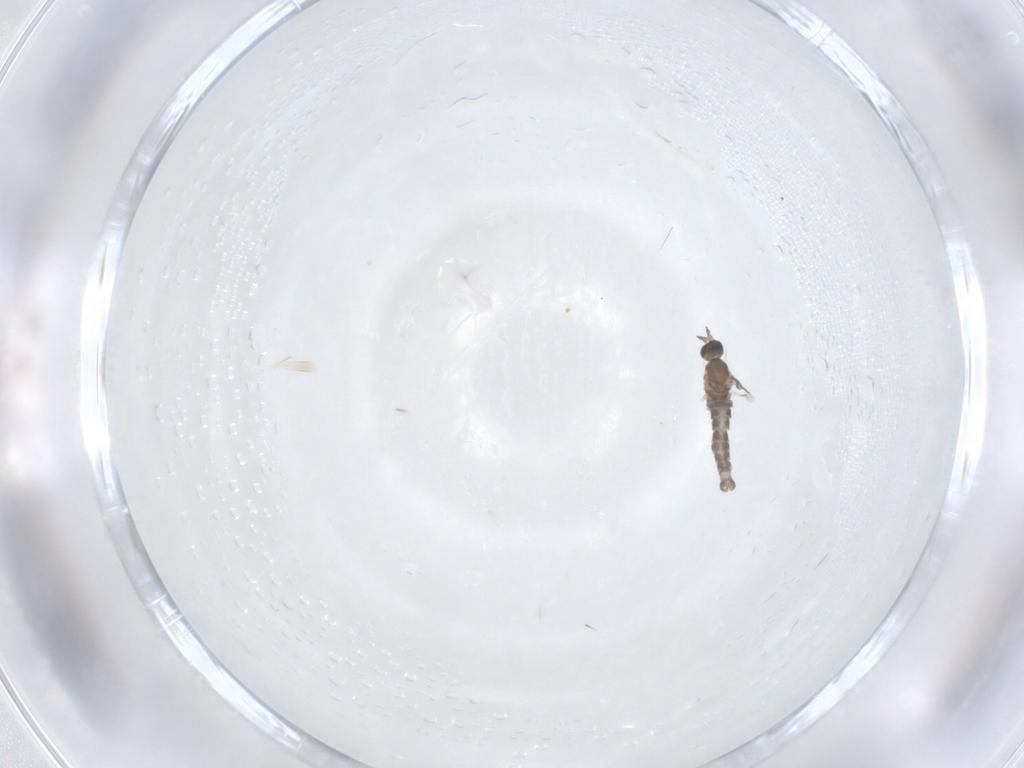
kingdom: Animalia
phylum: Arthropoda
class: Insecta
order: Diptera
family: Cecidomyiidae
